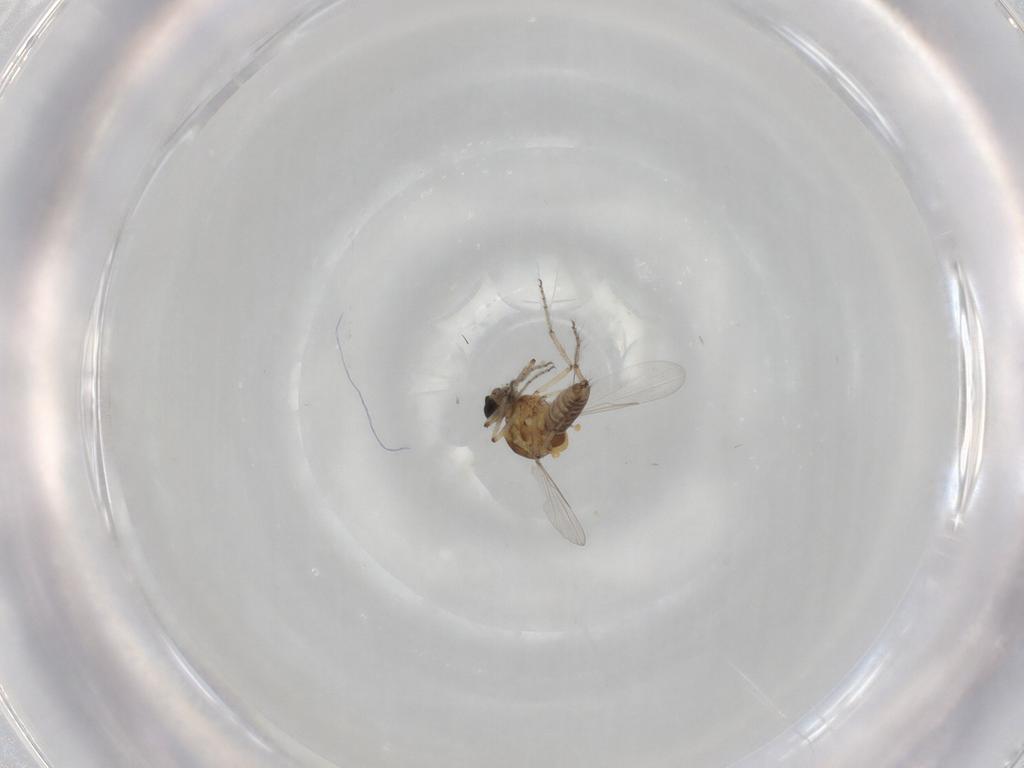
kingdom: Animalia
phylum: Arthropoda
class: Insecta
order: Diptera
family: Ceratopogonidae
